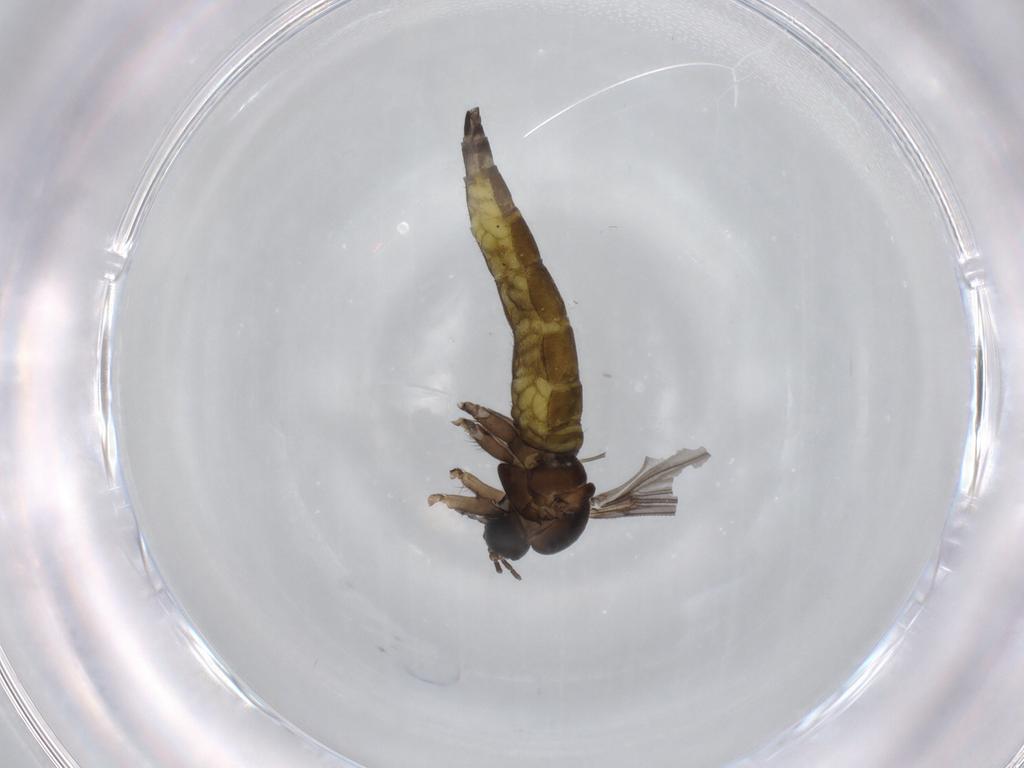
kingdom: Animalia
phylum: Arthropoda
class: Insecta
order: Diptera
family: Sciaridae
